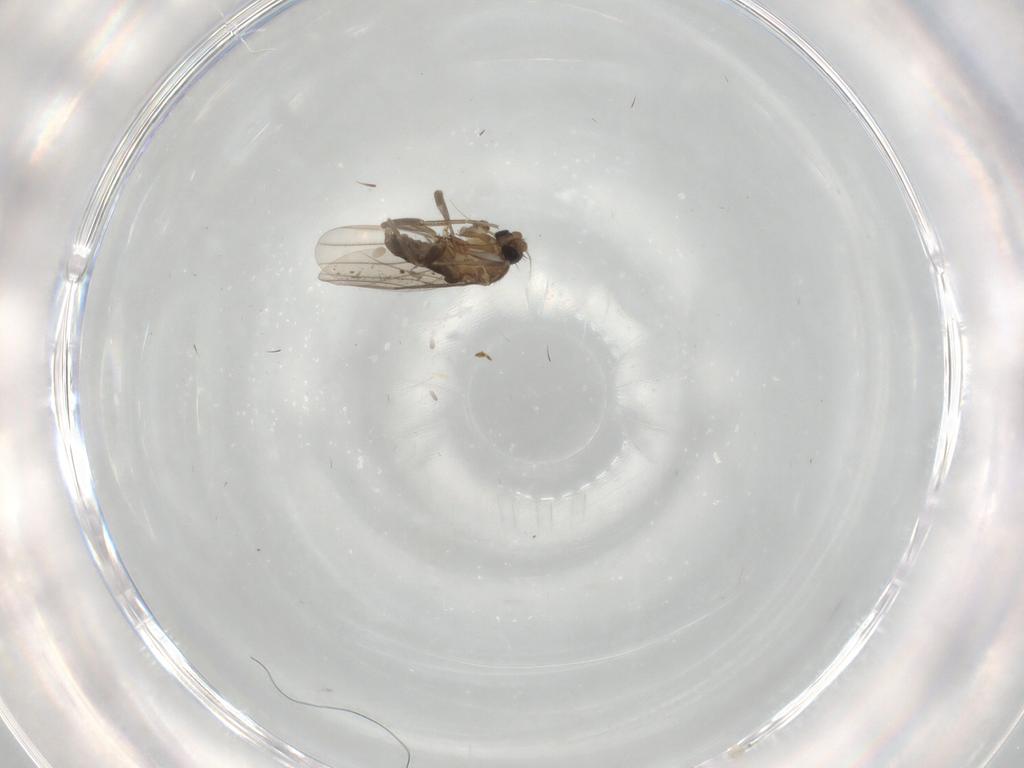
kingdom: Animalia
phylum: Arthropoda
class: Insecta
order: Diptera
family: Phoridae
